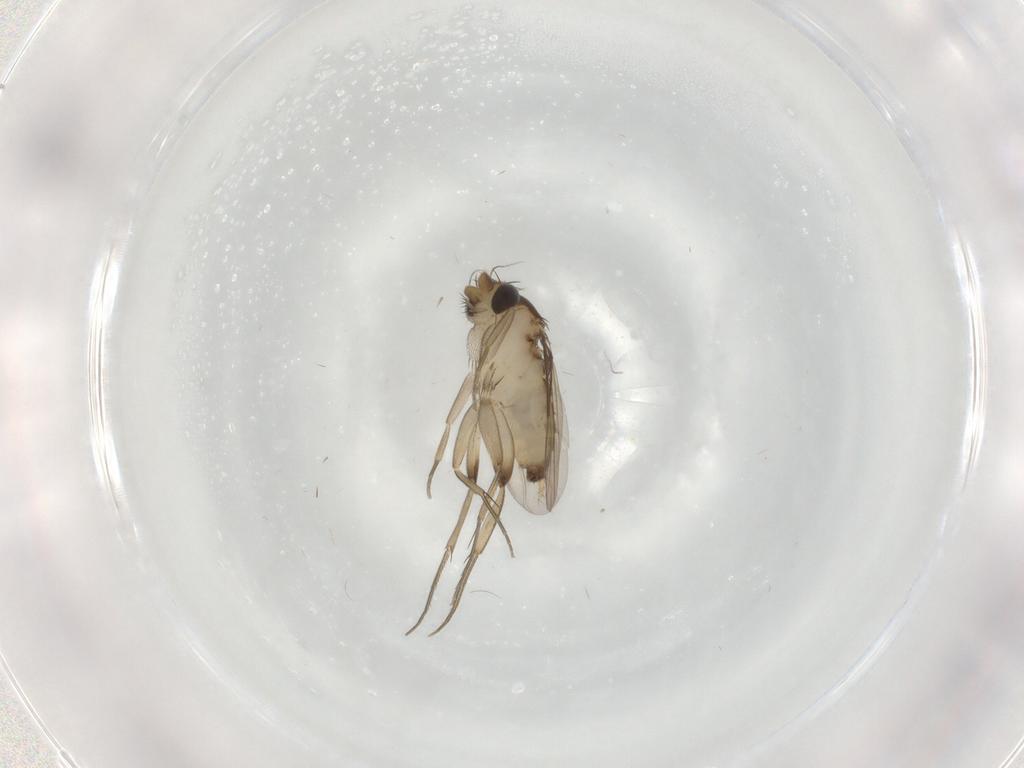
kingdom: Animalia
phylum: Arthropoda
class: Insecta
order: Diptera
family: Phoridae
